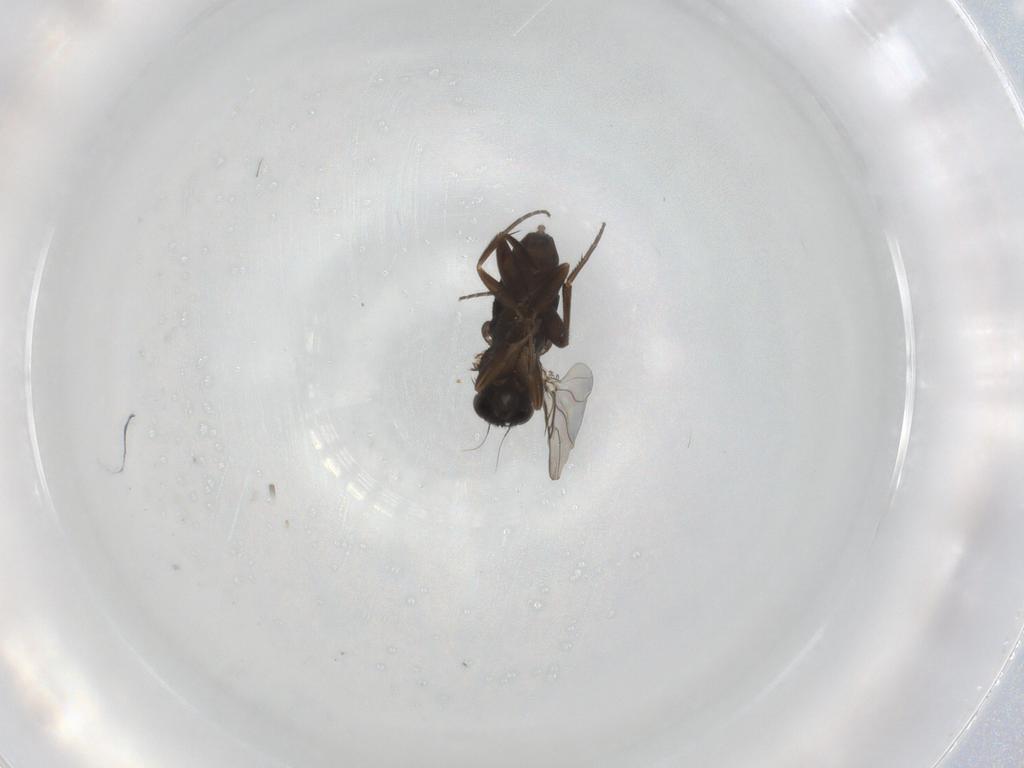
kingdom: Animalia
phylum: Arthropoda
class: Insecta
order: Diptera
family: Phoridae
